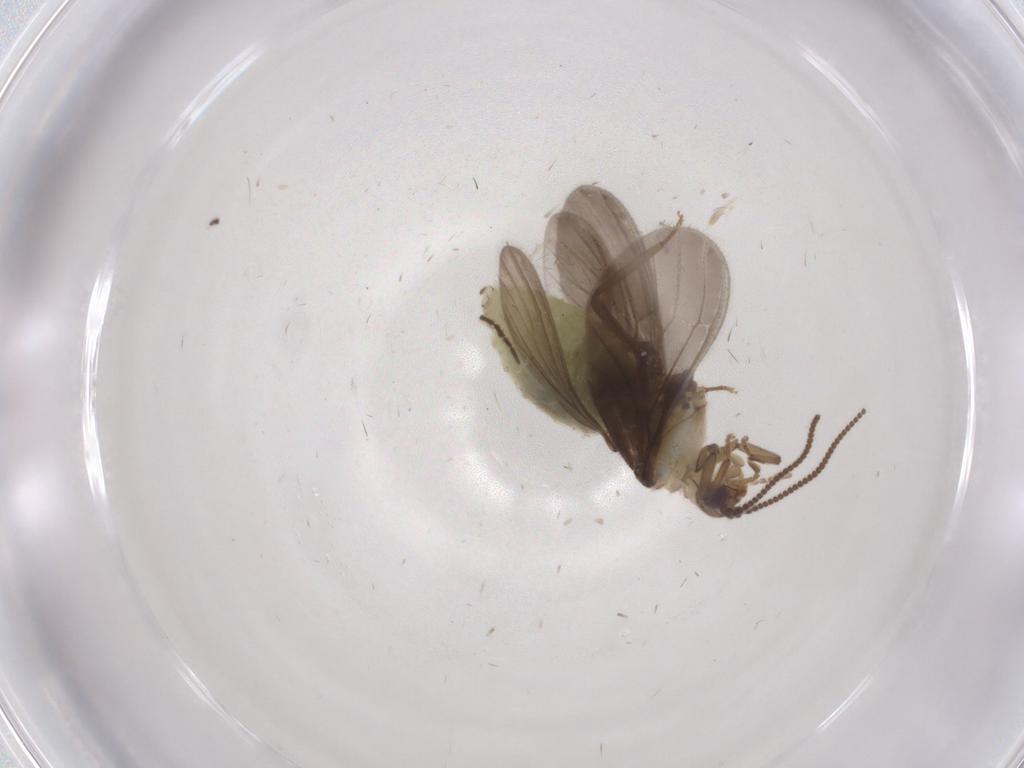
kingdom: Animalia
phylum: Arthropoda
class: Insecta
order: Neuroptera
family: Coniopterygidae
